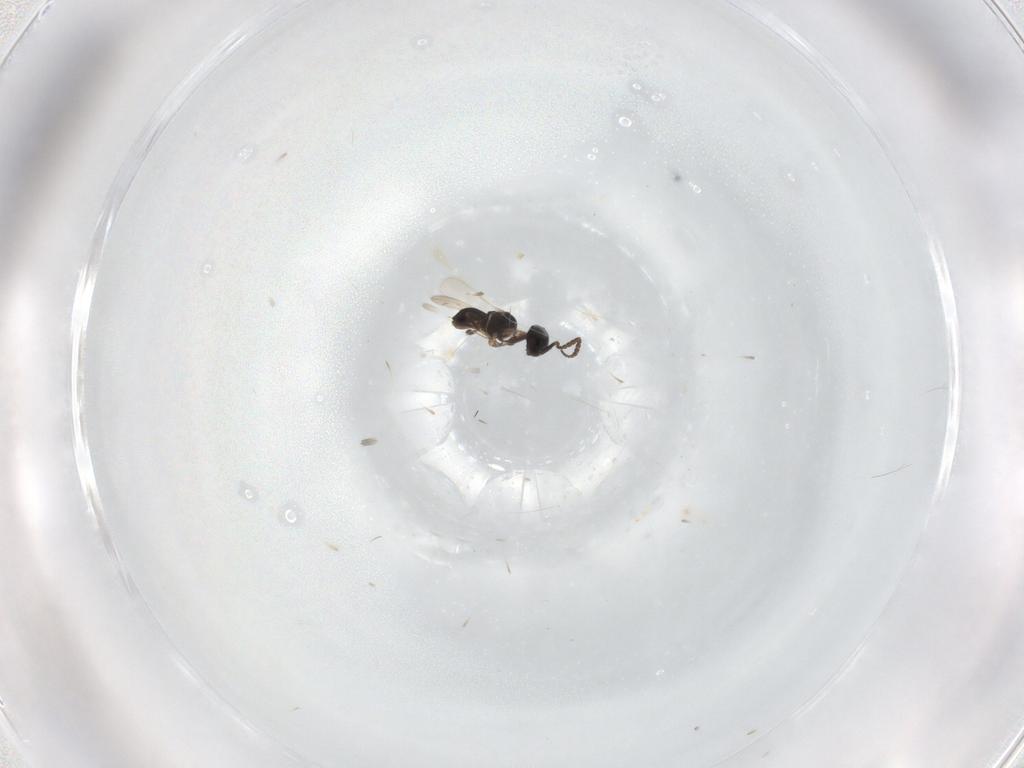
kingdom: Animalia
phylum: Arthropoda
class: Insecta
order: Hymenoptera
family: Scelionidae
